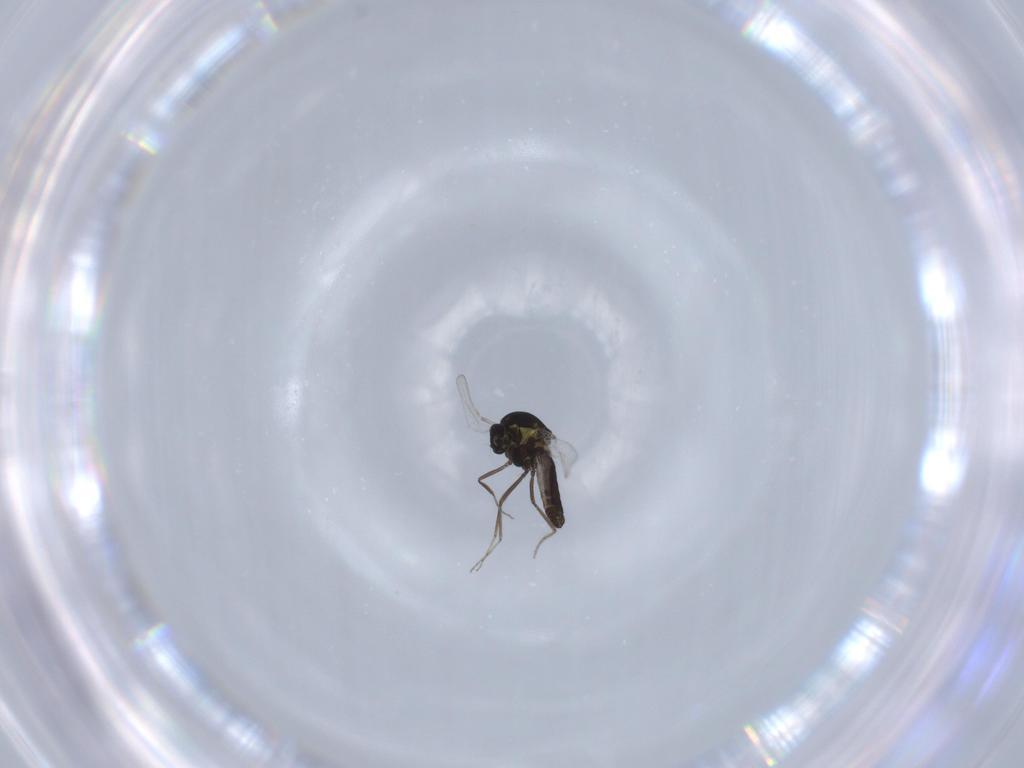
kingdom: Animalia
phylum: Arthropoda
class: Insecta
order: Diptera
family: Ceratopogonidae
